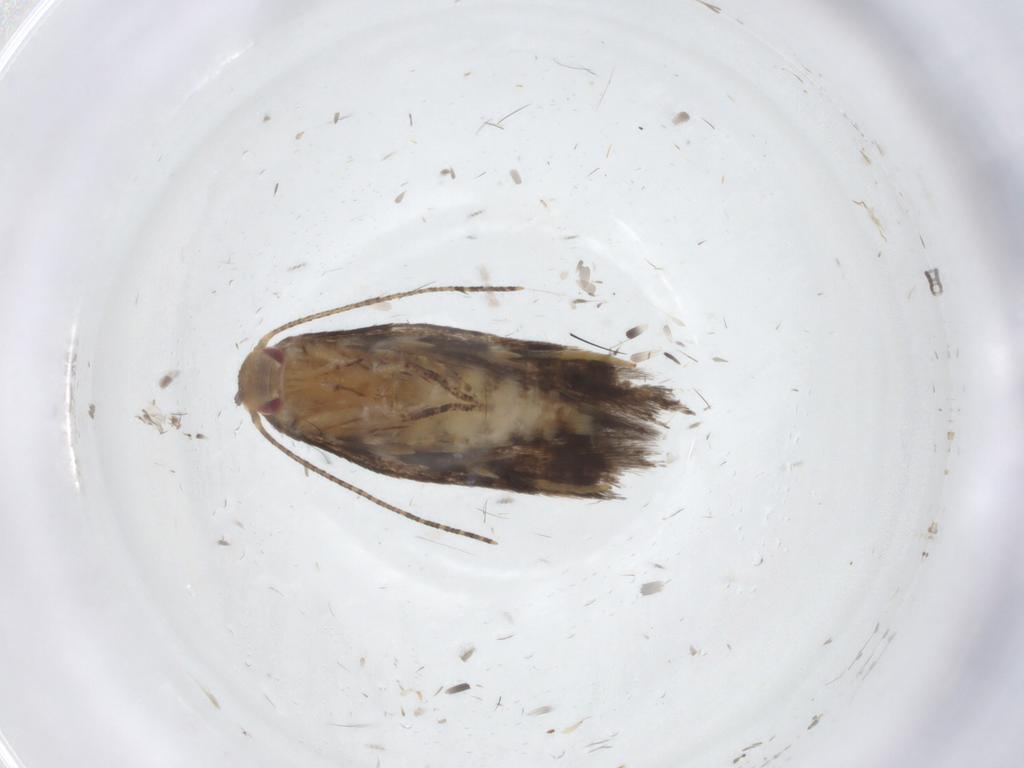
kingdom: Animalia
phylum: Arthropoda
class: Insecta
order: Lepidoptera
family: Momphidae
